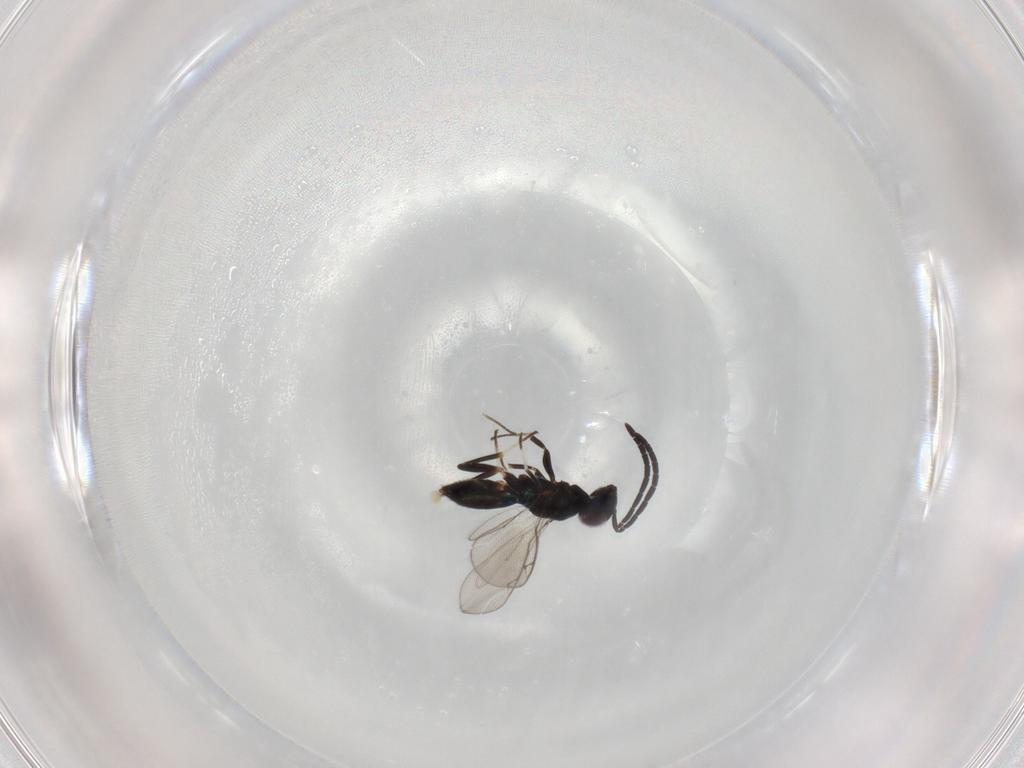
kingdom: Animalia
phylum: Arthropoda
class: Insecta
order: Hymenoptera
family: Eupelmidae
